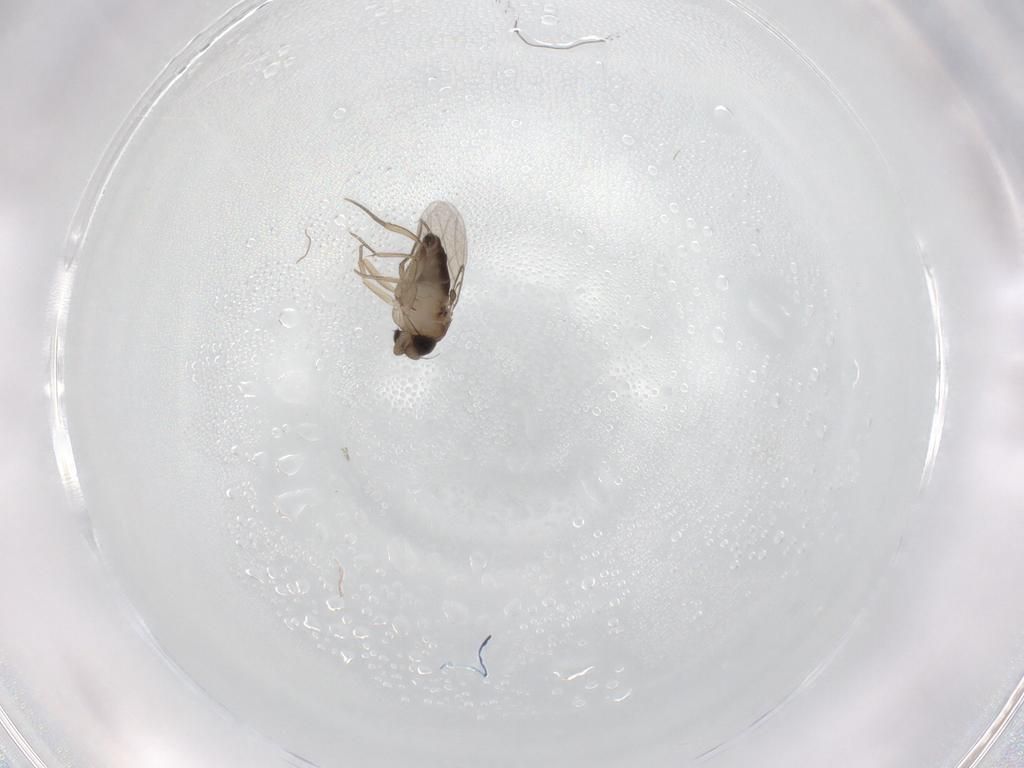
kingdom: Animalia
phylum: Arthropoda
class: Insecta
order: Diptera
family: Phoridae
